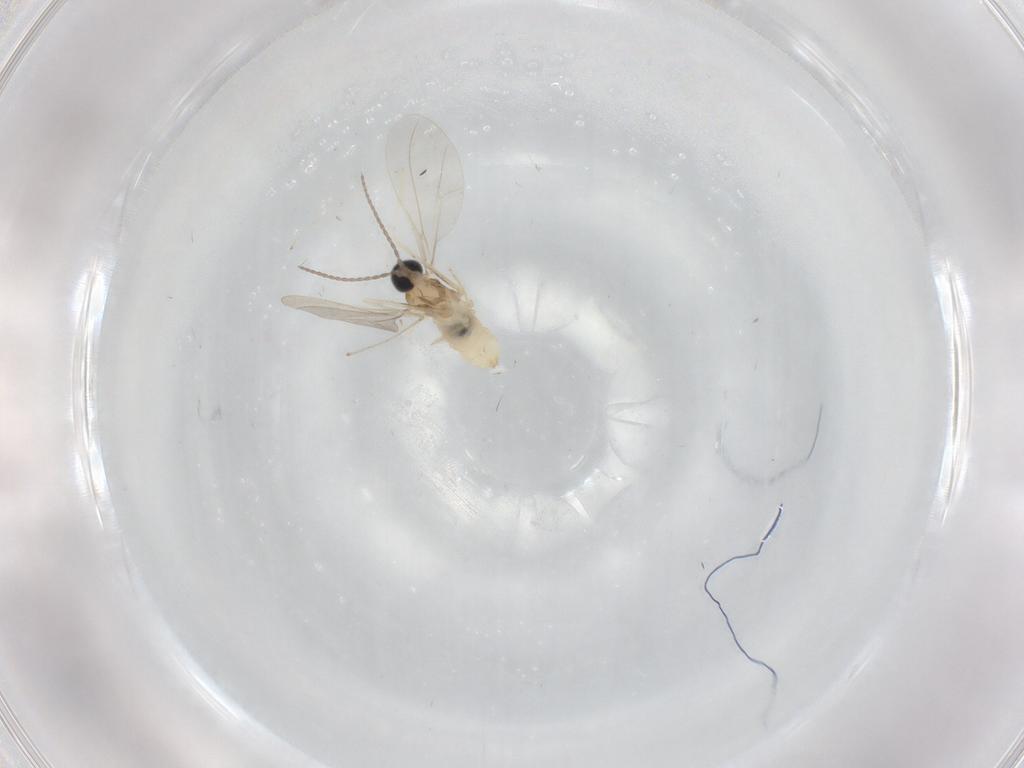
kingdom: Animalia
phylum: Arthropoda
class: Insecta
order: Diptera
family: Cecidomyiidae
